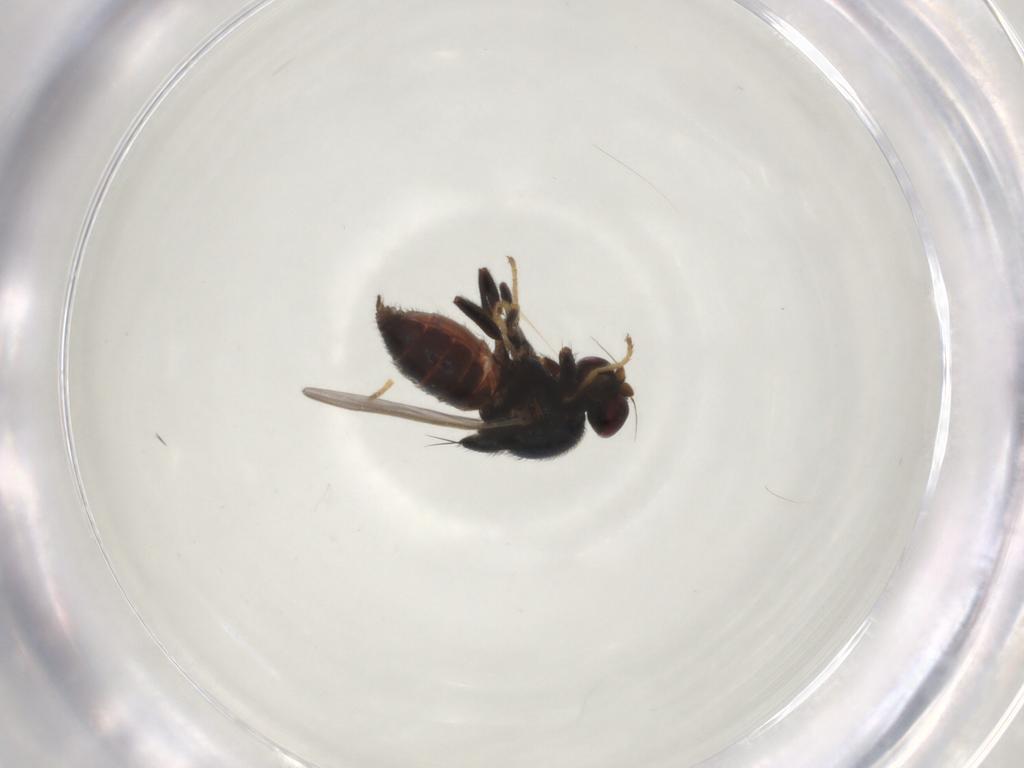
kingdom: Animalia
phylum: Arthropoda
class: Insecta
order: Diptera
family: Chloropidae
